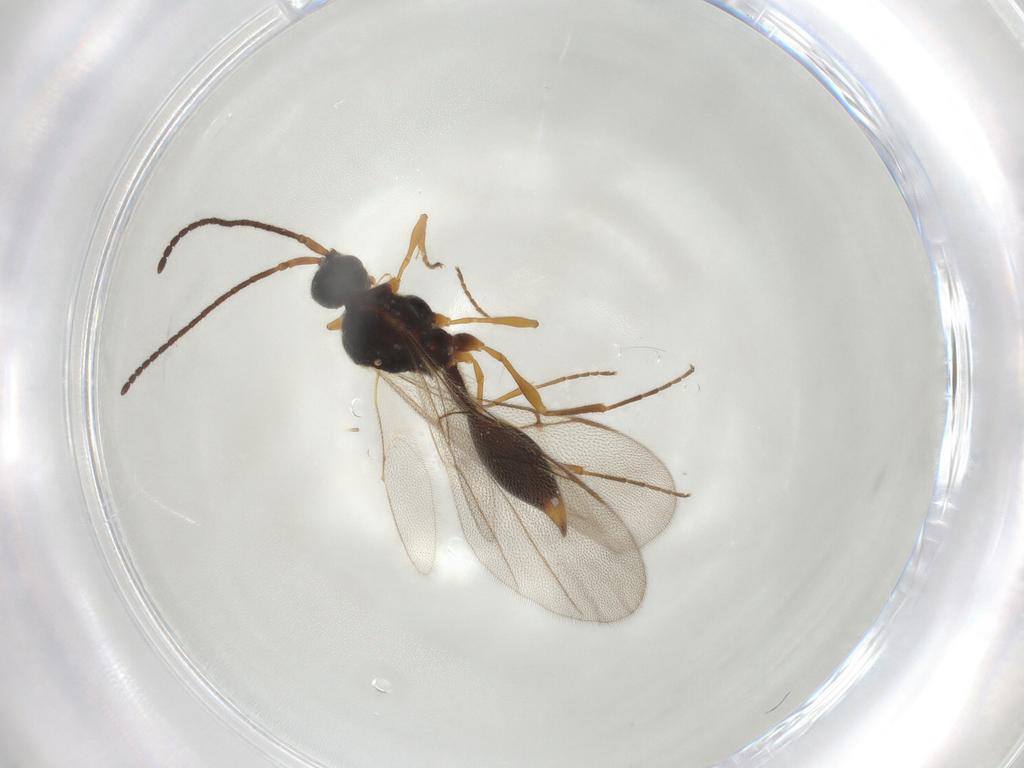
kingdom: Animalia
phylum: Arthropoda
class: Insecta
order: Hymenoptera
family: Diapriidae
